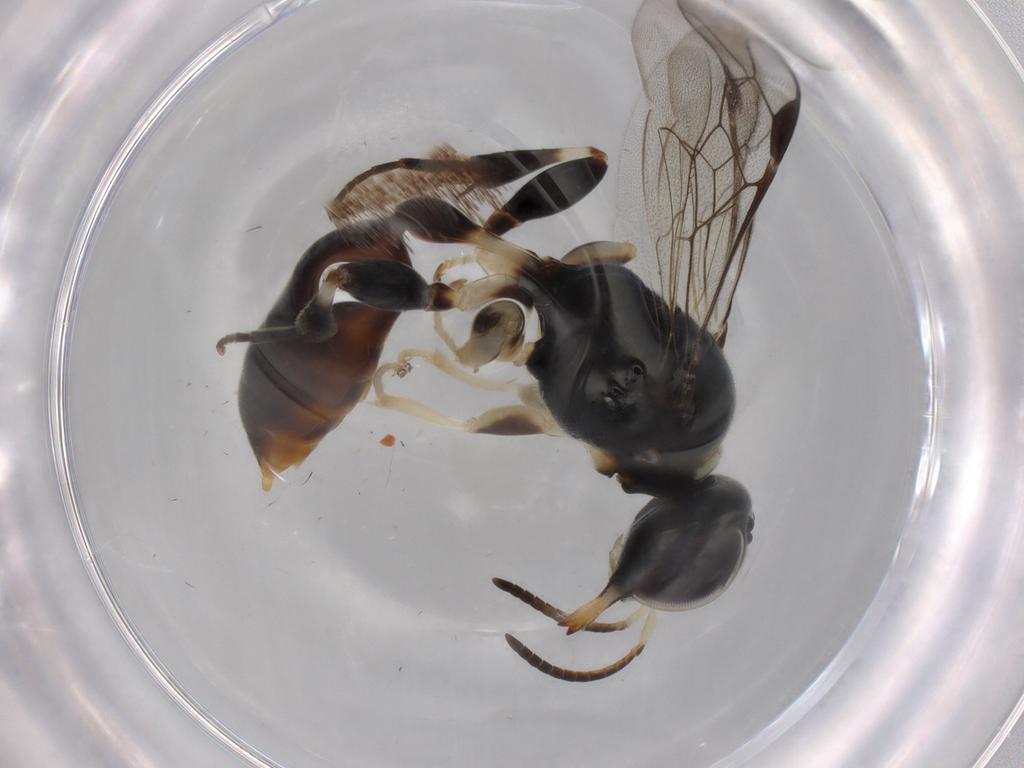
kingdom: Animalia
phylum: Arthropoda
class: Insecta
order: Hymenoptera
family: Crabronidae
